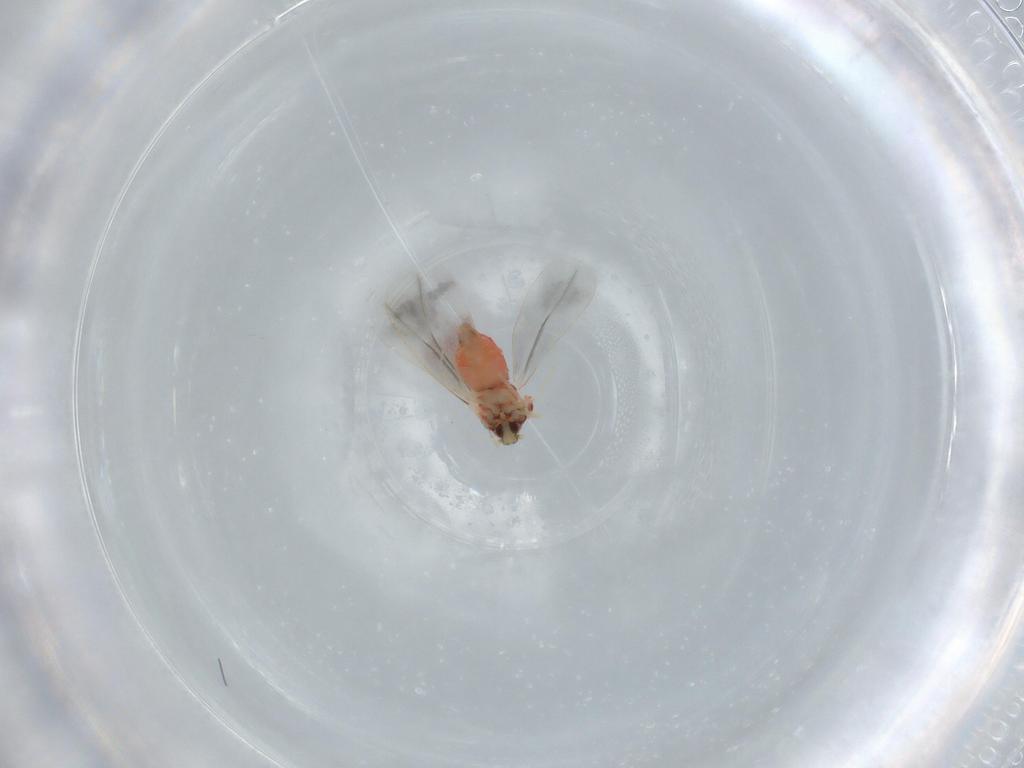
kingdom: Animalia
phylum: Arthropoda
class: Insecta
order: Hemiptera
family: Aleyrodidae
